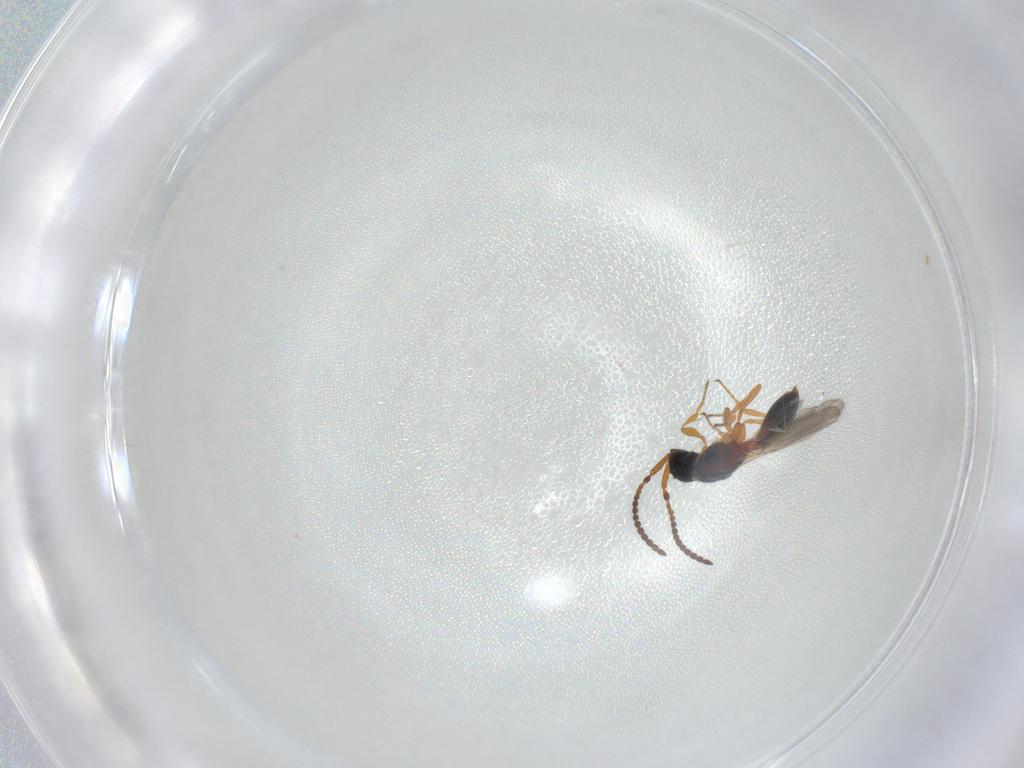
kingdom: Animalia
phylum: Arthropoda
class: Insecta
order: Hymenoptera
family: Diapriidae
